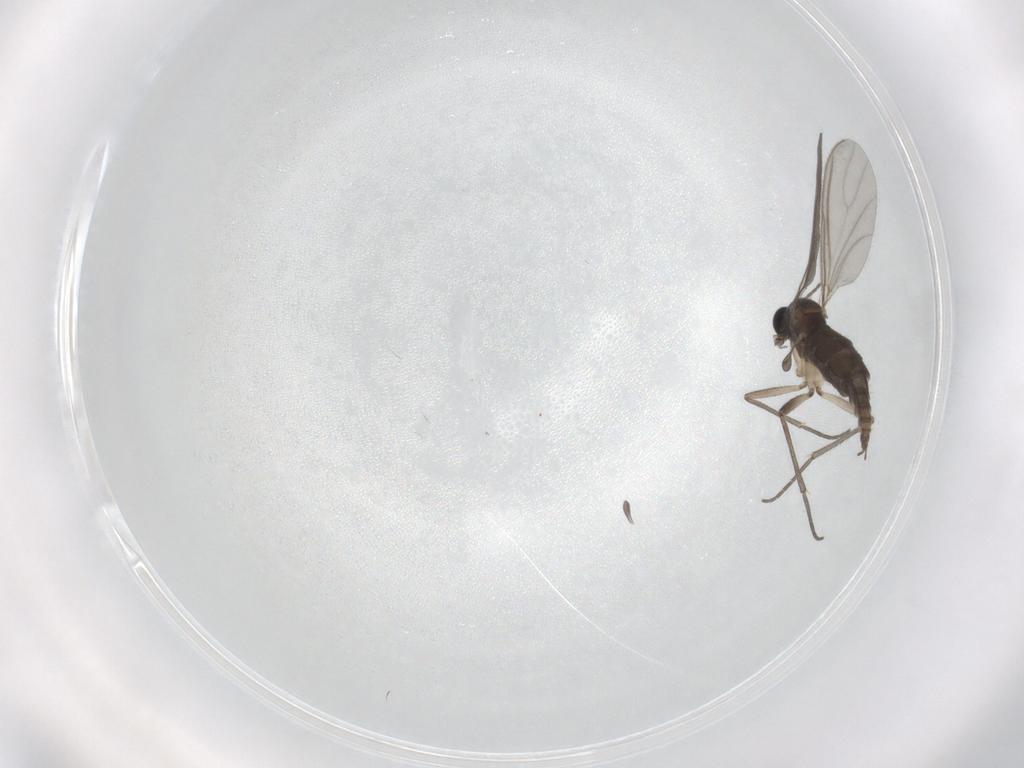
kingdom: Animalia
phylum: Arthropoda
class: Insecta
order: Diptera
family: Sciaridae
